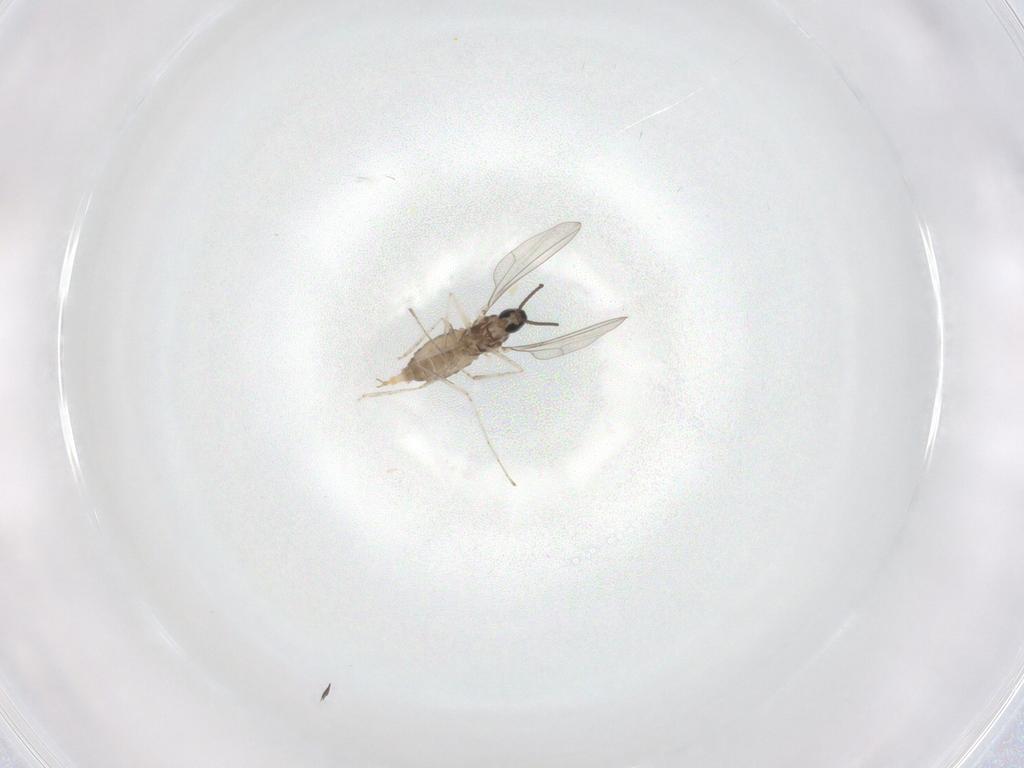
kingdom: Animalia
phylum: Arthropoda
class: Insecta
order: Diptera
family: Cecidomyiidae
